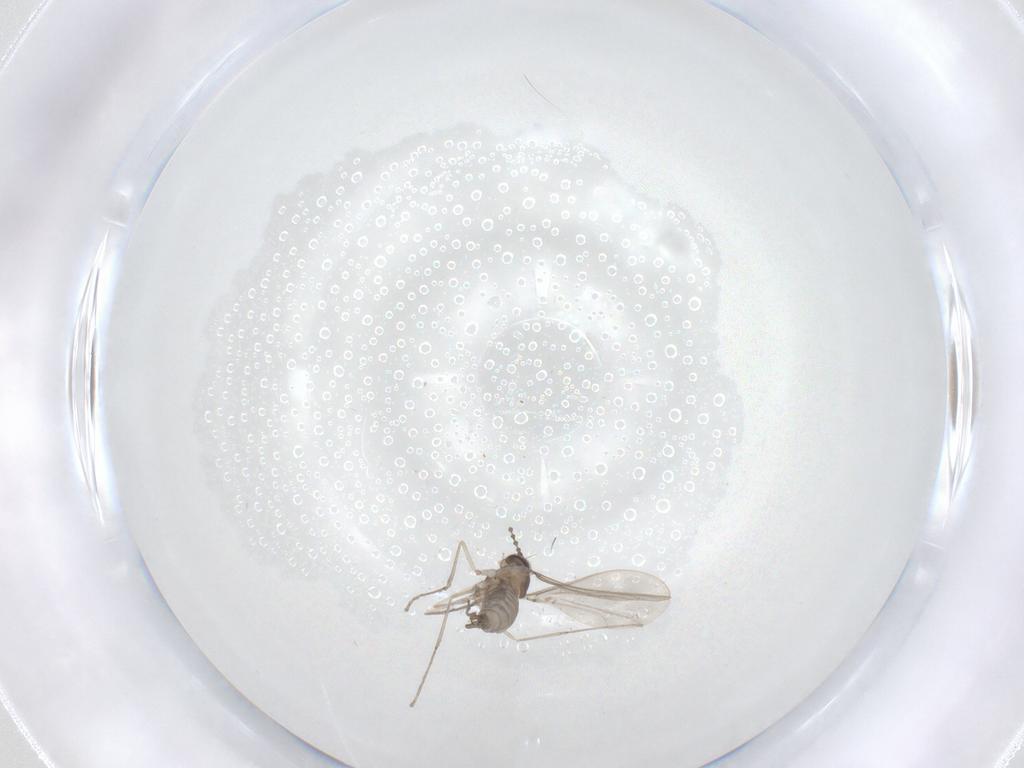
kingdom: Animalia
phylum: Arthropoda
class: Insecta
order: Diptera
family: Cecidomyiidae
